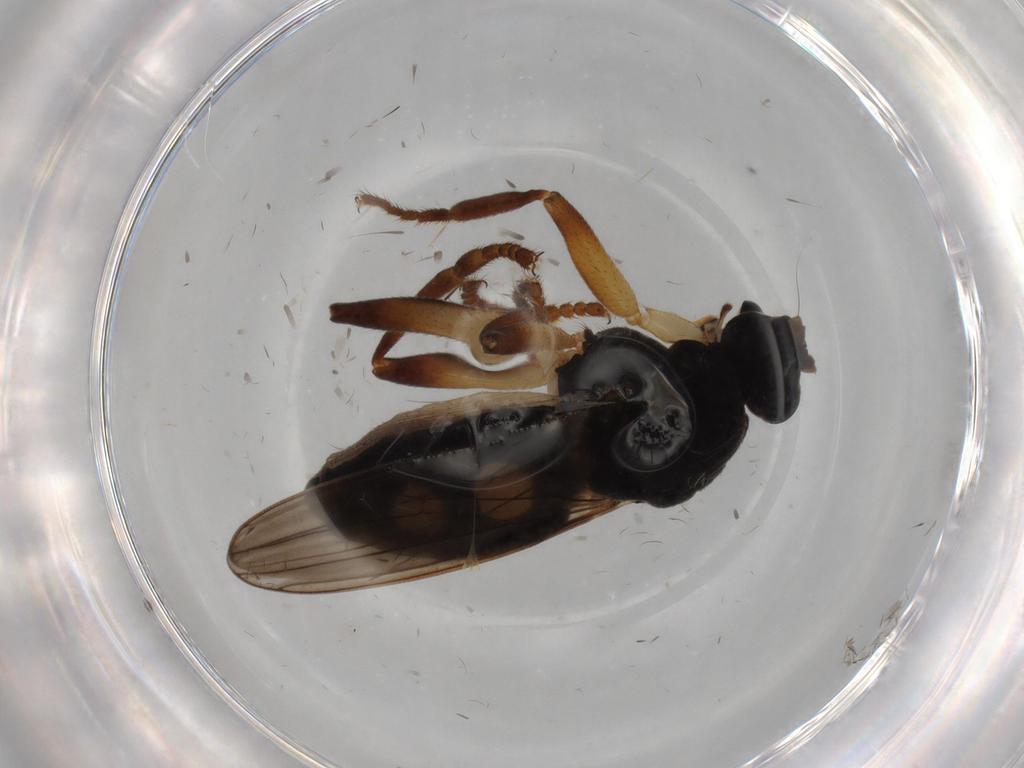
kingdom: Animalia
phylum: Arthropoda
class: Insecta
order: Diptera
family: Sphaeroceridae
